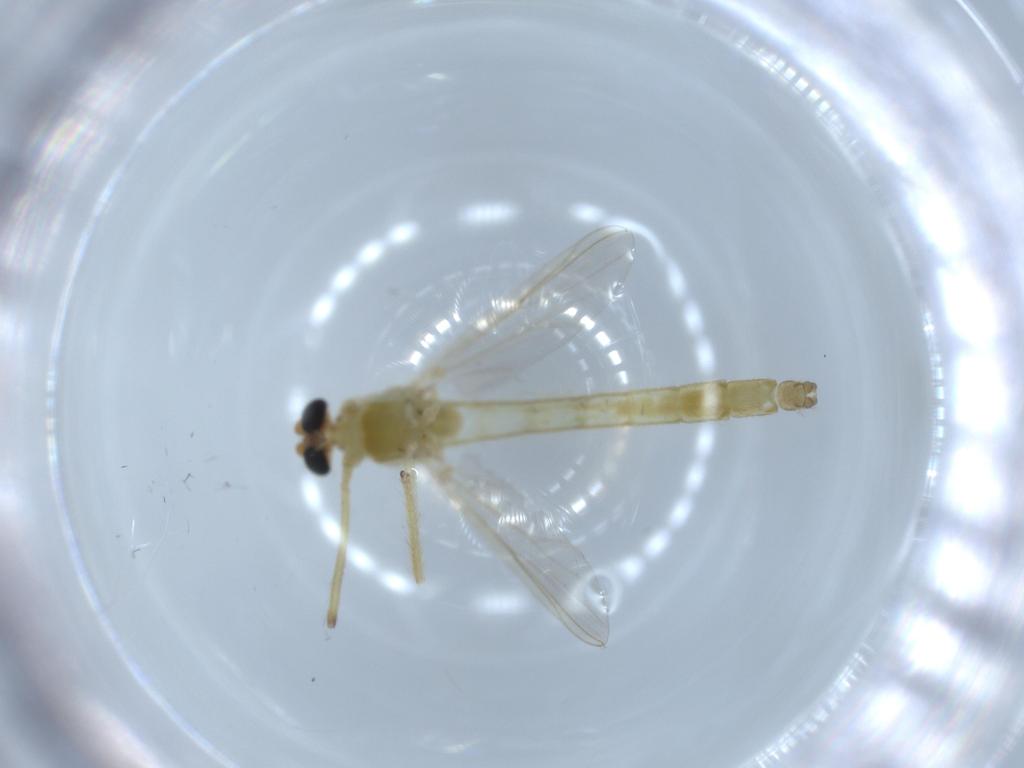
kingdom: Animalia
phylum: Arthropoda
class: Insecta
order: Diptera
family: Chironomidae
